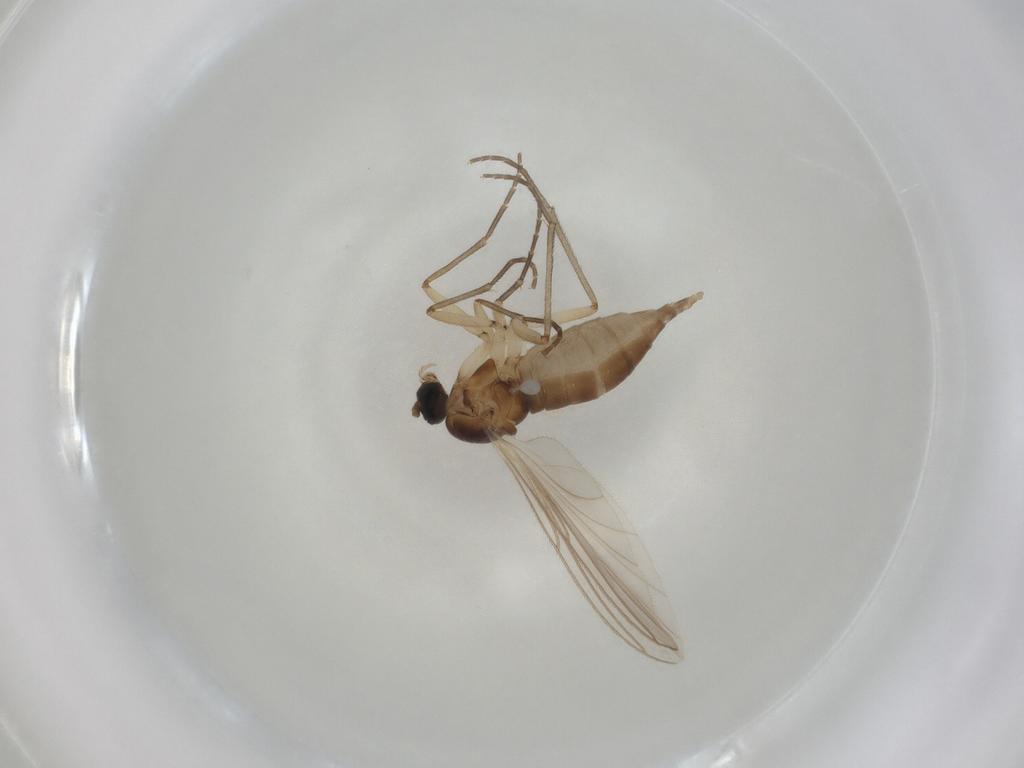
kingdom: Animalia
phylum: Arthropoda
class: Insecta
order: Diptera
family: Sciaridae
